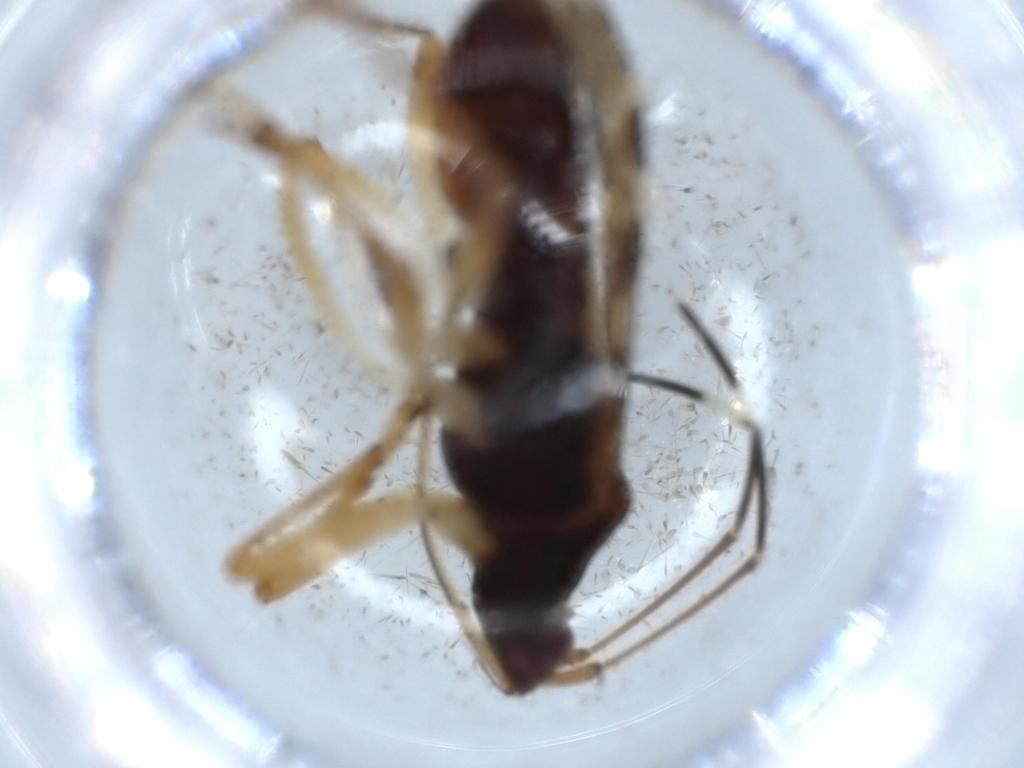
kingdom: Animalia
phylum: Arthropoda
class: Insecta
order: Hemiptera
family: Rhyparochromidae
